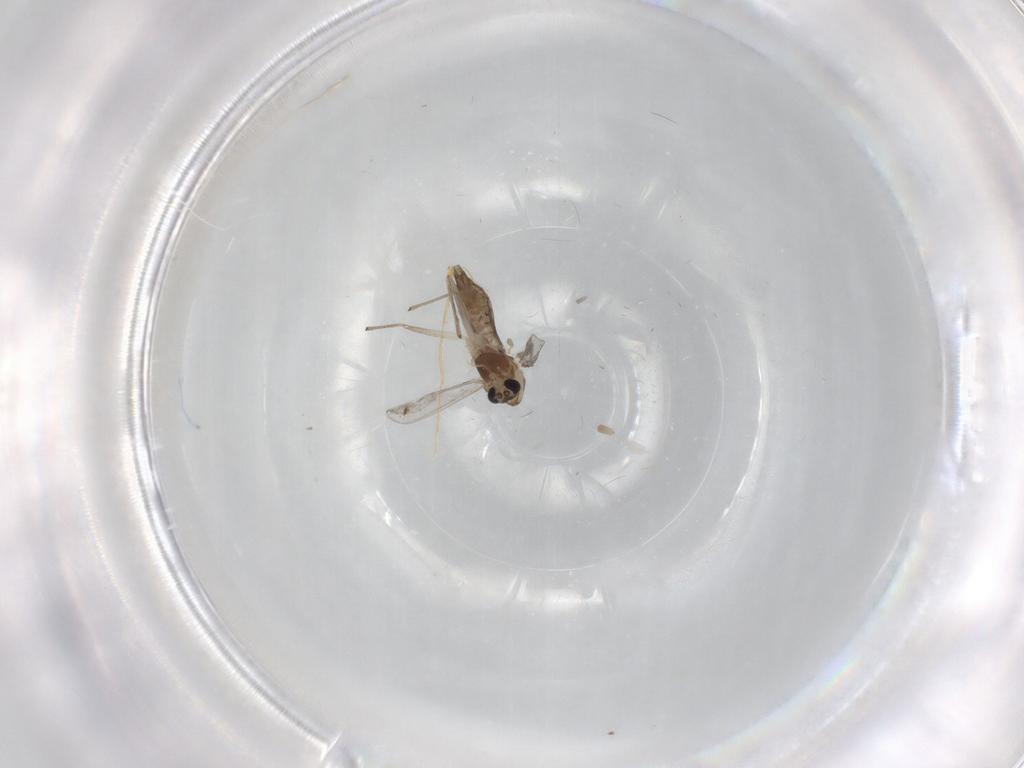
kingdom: Animalia
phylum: Arthropoda
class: Insecta
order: Diptera
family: Chironomidae
